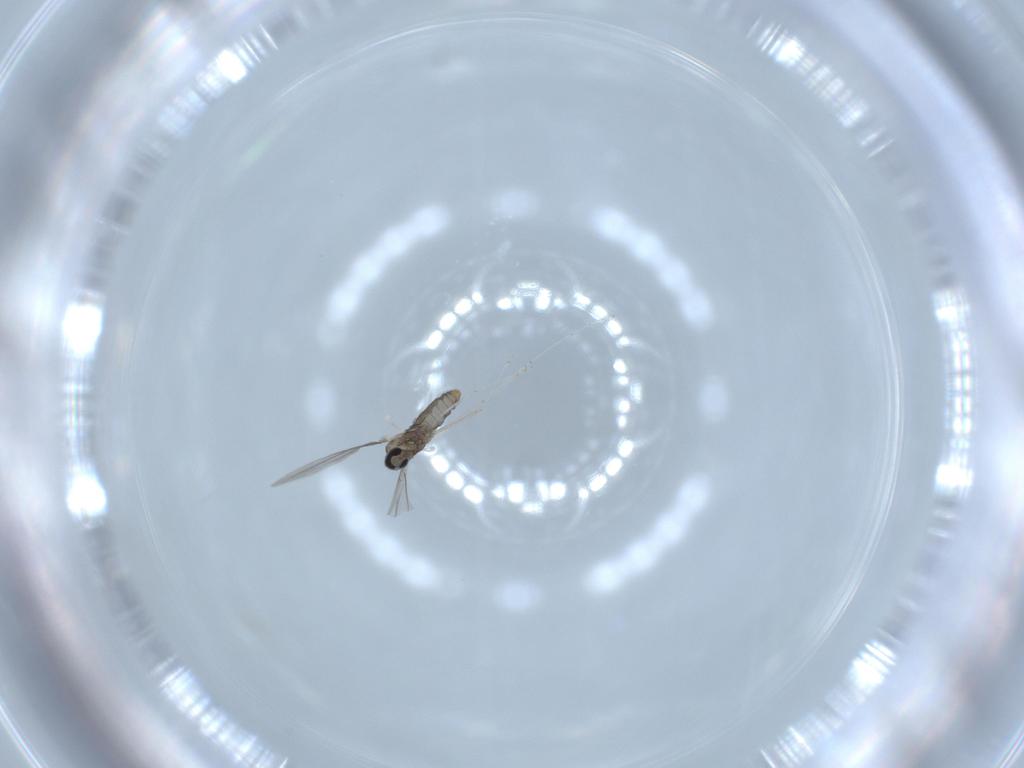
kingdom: Animalia
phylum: Arthropoda
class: Insecta
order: Diptera
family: Cecidomyiidae
